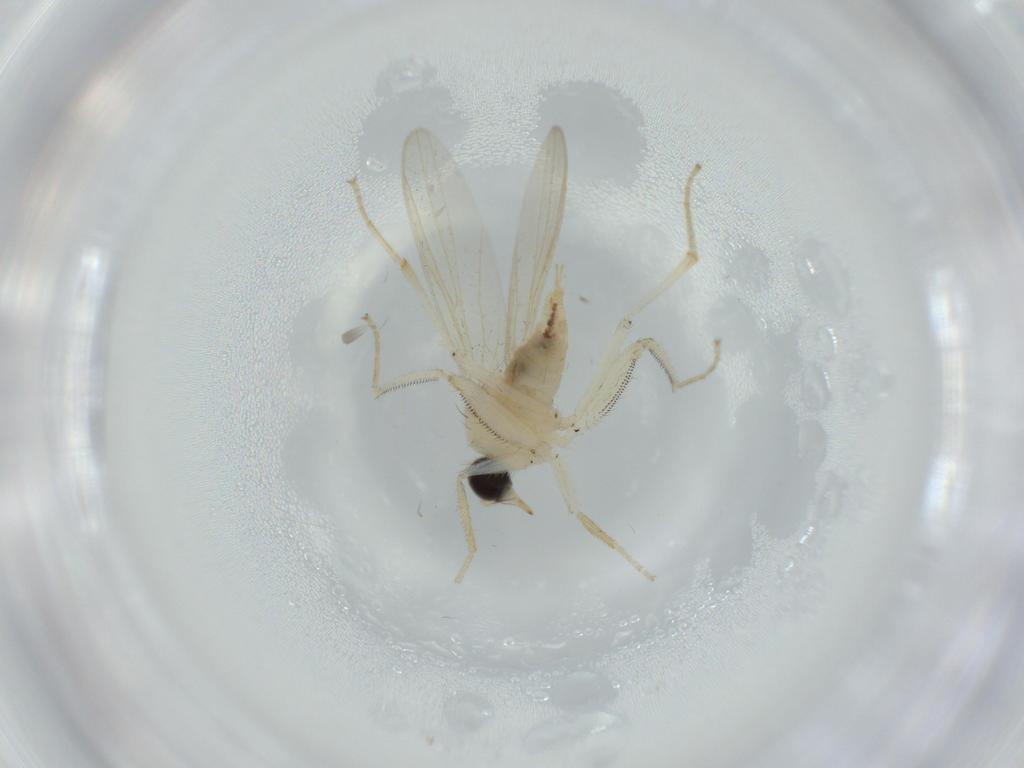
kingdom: Animalia
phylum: Arthropoda
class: Insecta
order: Diptera
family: Hybotidae
